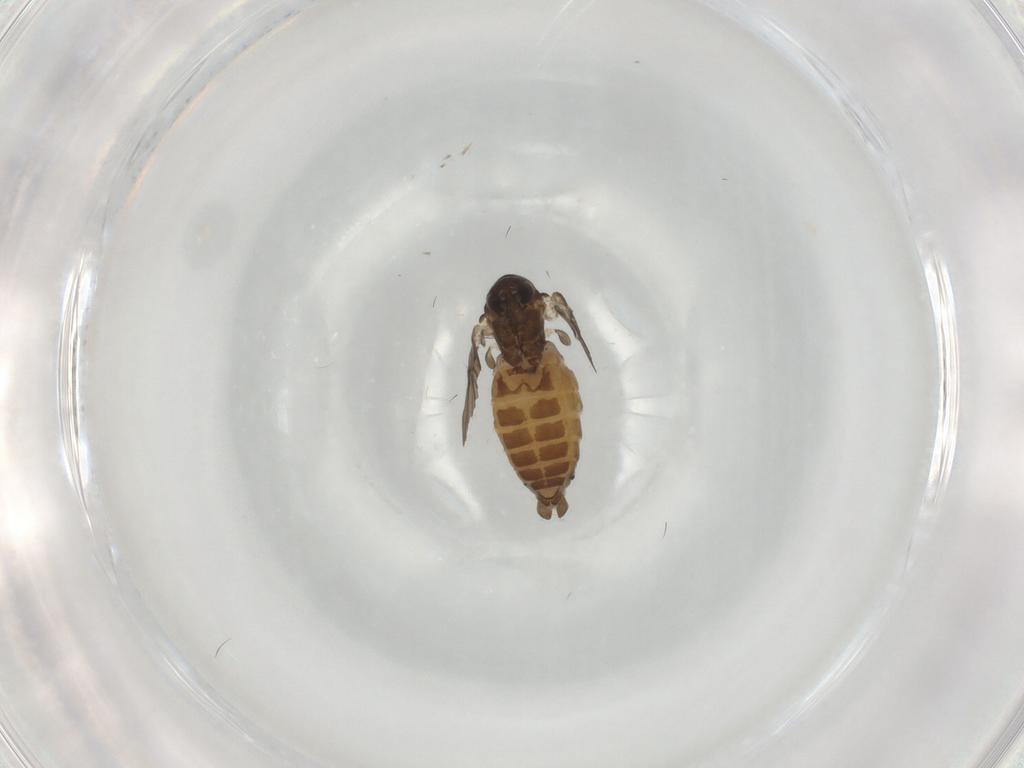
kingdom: Animalia
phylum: Arthropoda
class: Insecta
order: Diptera
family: Psychodidae
